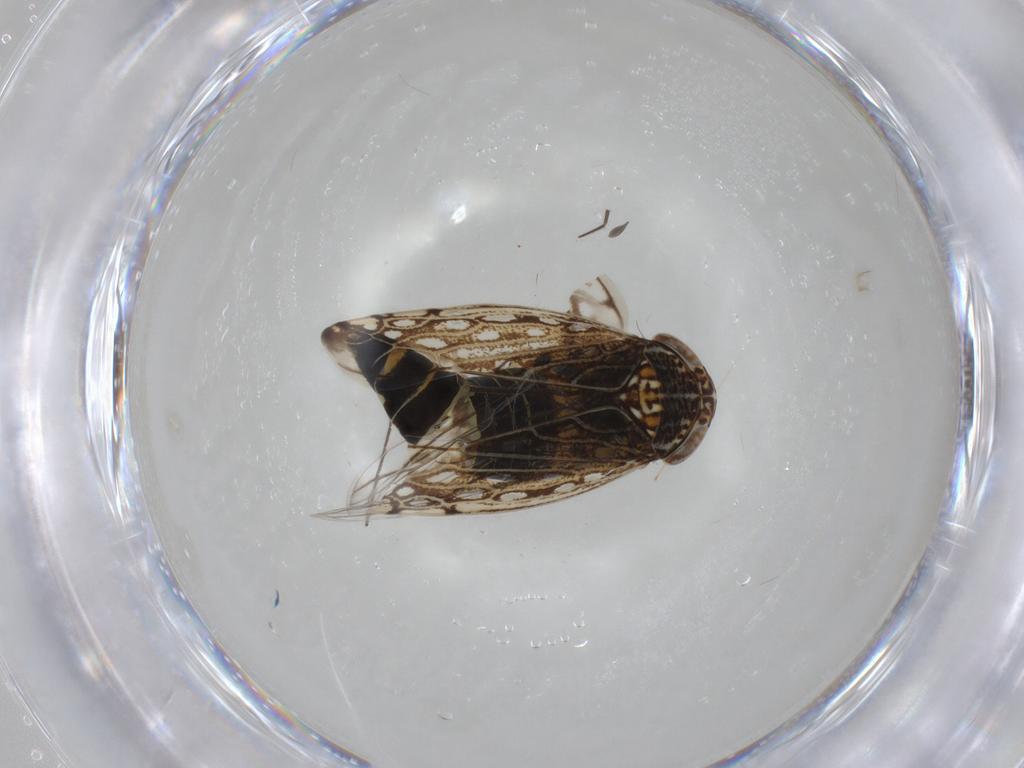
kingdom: Animalia
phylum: Arthropoda
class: Insecta
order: Hemiptera
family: Cicadellidae
